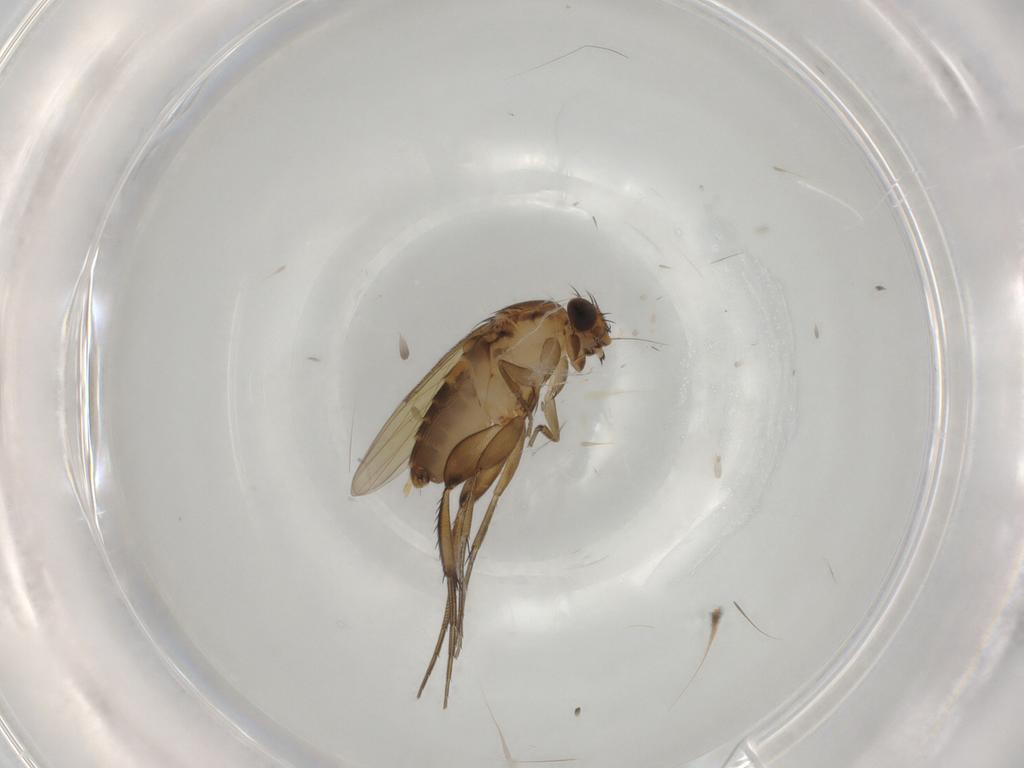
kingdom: Animalia
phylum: Arthropoda
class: Insecta
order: Diptera
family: Phoridae
